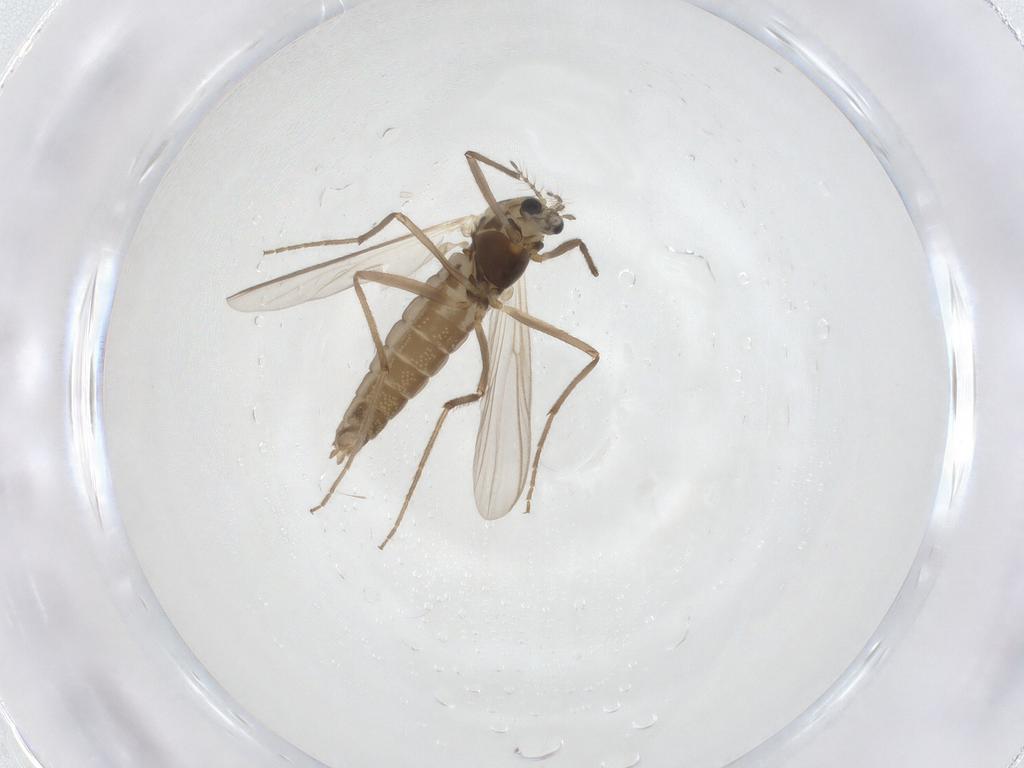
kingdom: Animalia
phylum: Arthropoda
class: Insecta
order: Diptera
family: Chironomidae
